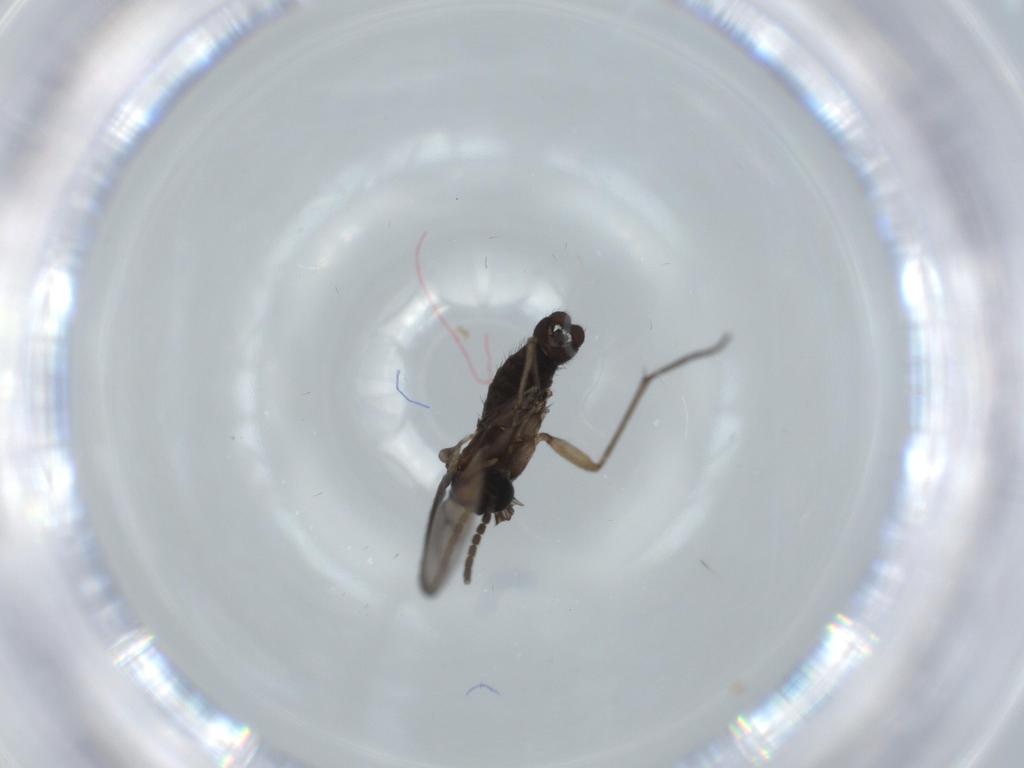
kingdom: Animalia
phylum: Arthropoda
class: Insecta
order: Diptera
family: Sciaridae
